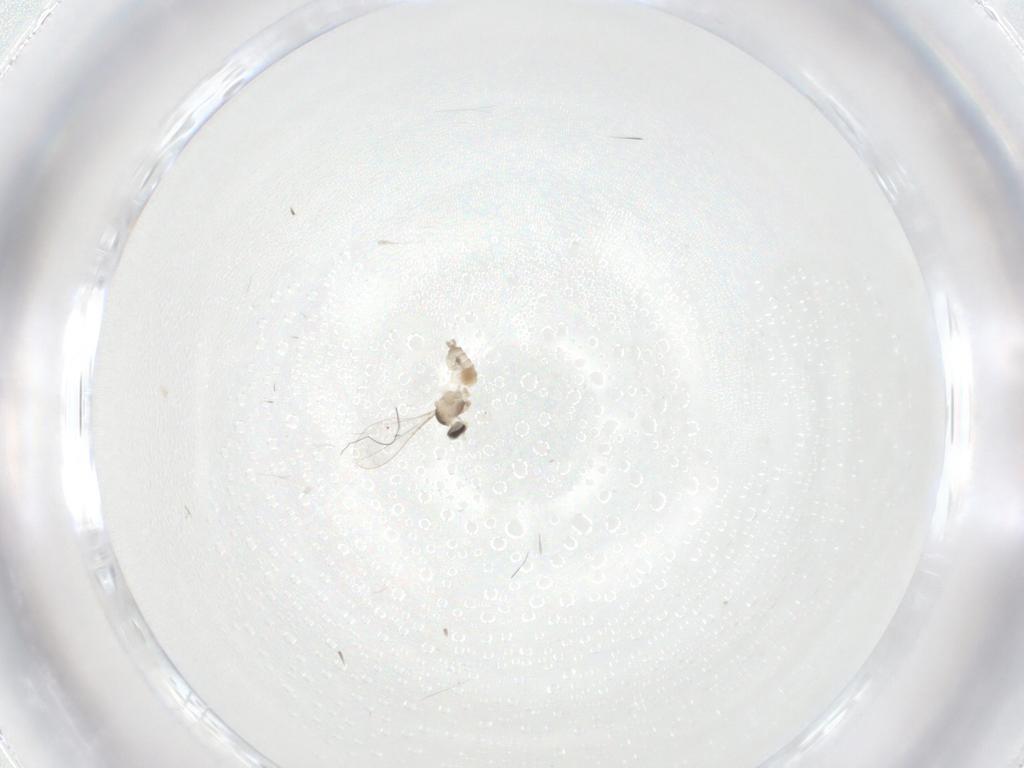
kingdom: Animalia
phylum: Arthropoda
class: Insecta
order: Diptera
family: Cecidomyiidae
